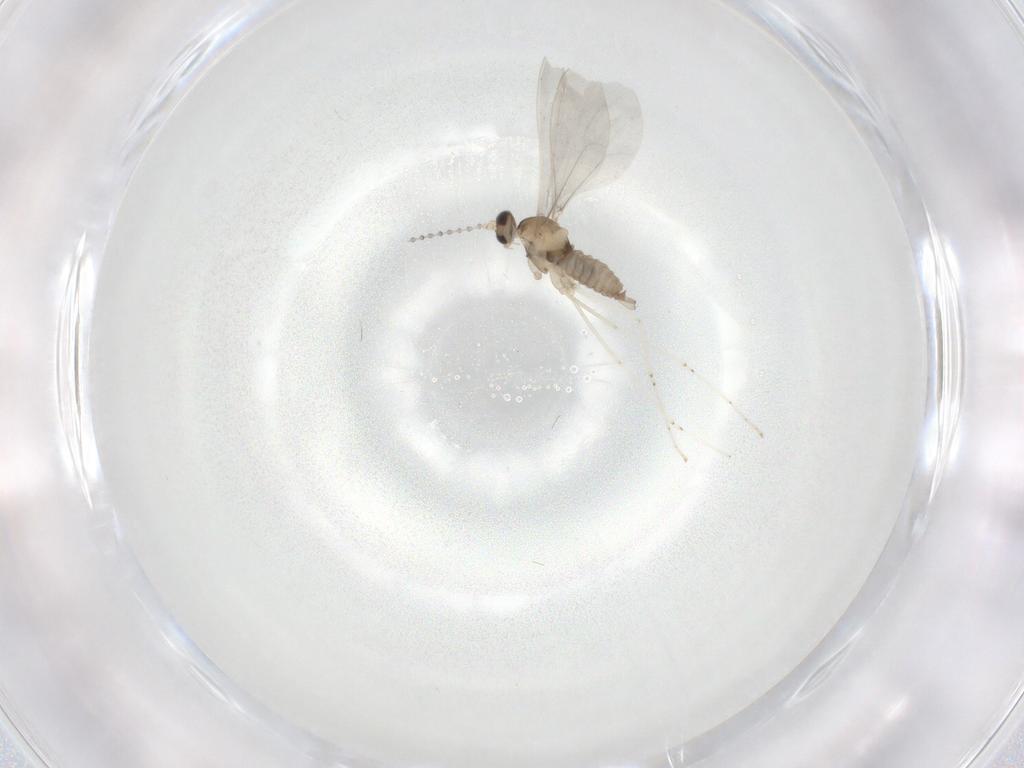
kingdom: Animalia
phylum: Arthropoda
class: Insecta
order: Diptera
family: Cecidomyiidae
